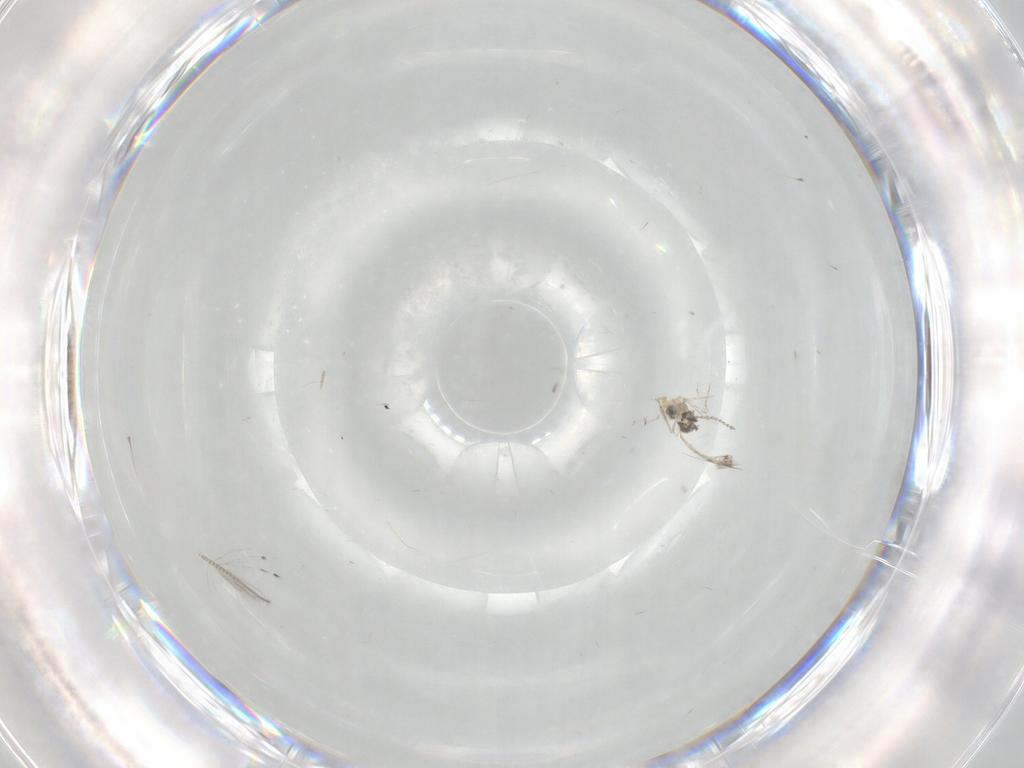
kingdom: Animalia
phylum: Arthropoda
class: Insecta
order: Diptera
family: Cecidomyiidae
